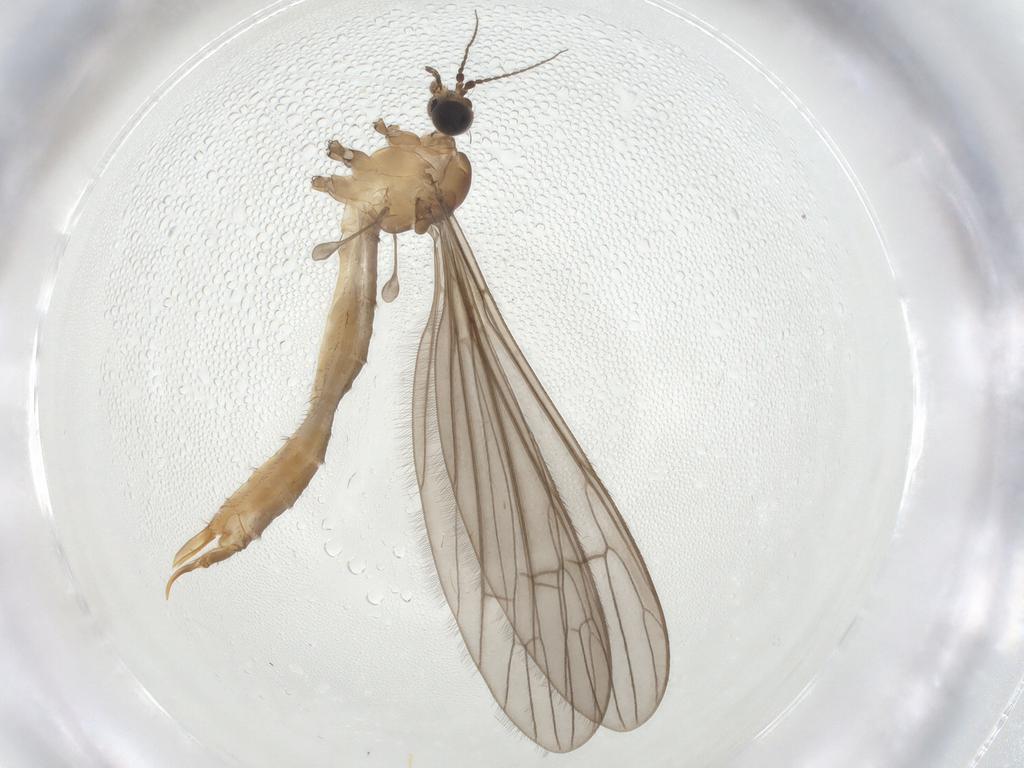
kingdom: Animalia
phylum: Arthropoda
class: Insecta
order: Diptera
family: Limoniidae
